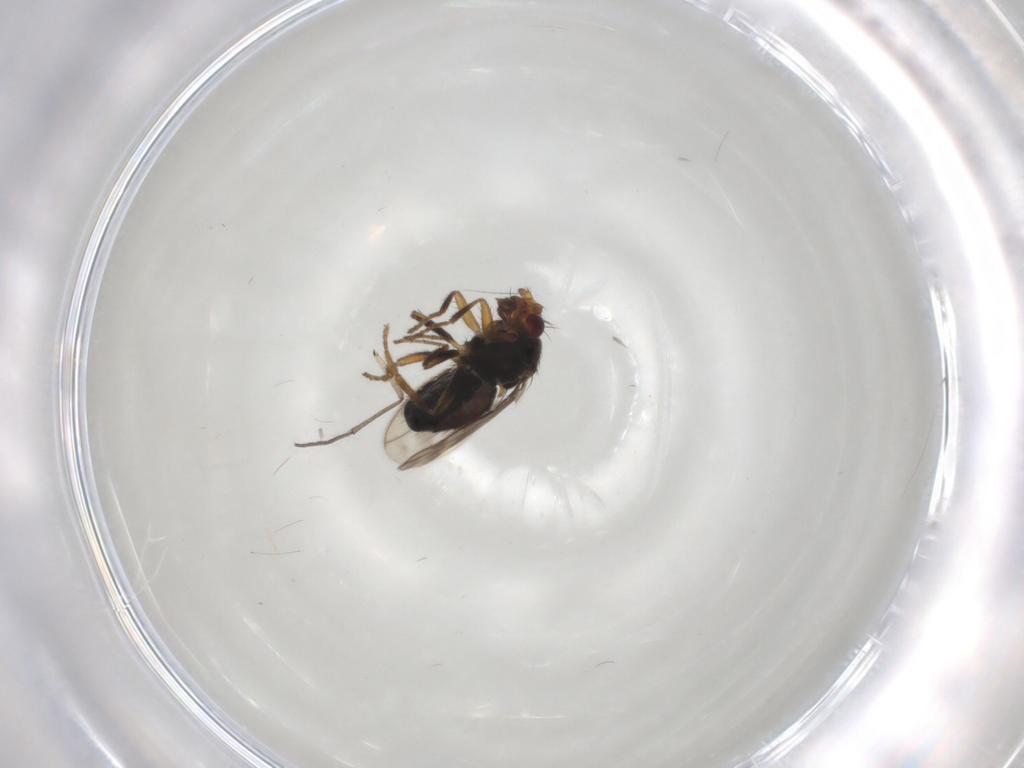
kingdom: Animalia
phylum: Arthropoda
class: Insecta
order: Diptera
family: Sphaeroceridae
